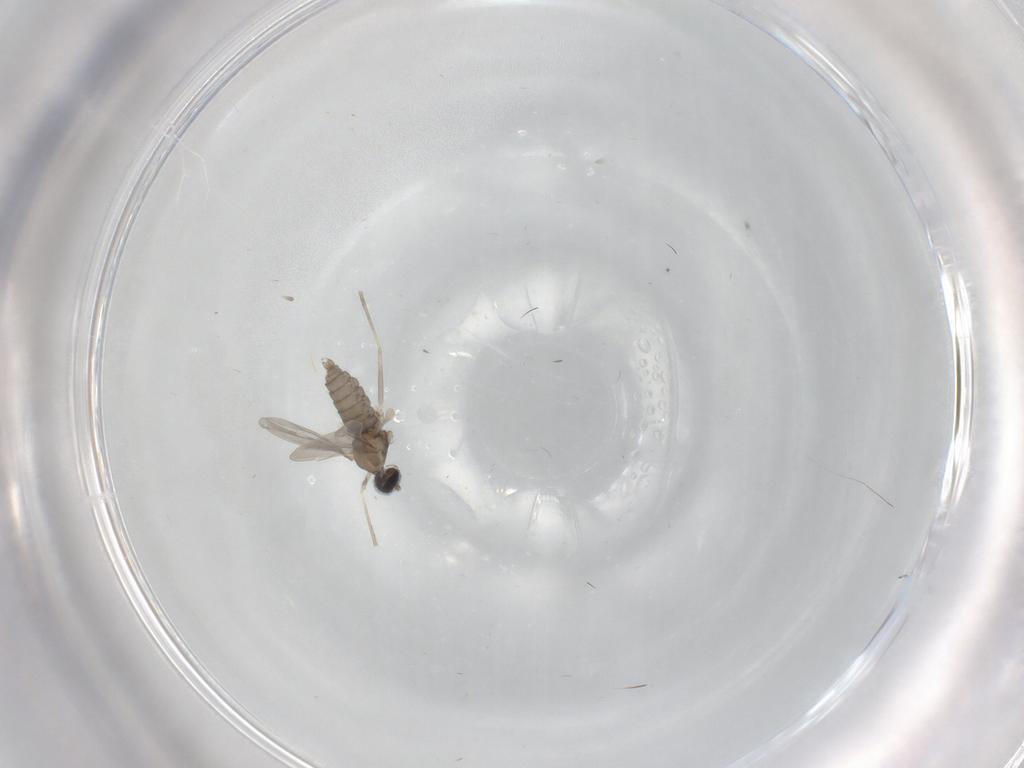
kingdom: Animalia
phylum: Arthropoda
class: Insecta
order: Diptera
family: Cecidomyiidae
